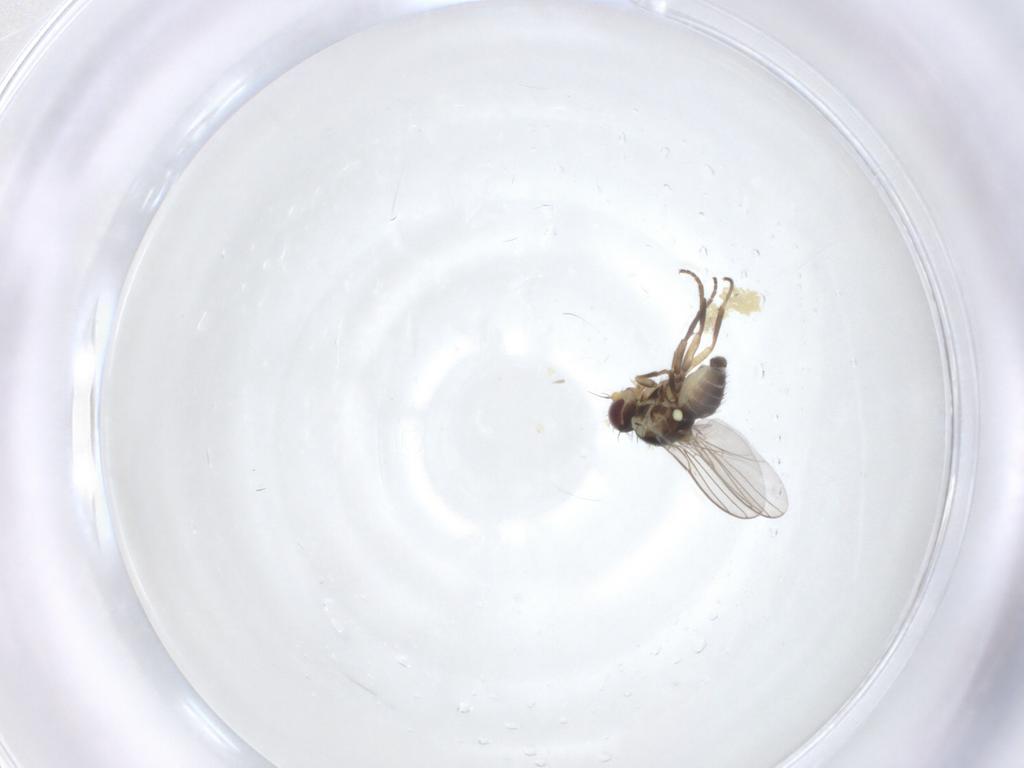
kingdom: Animalia
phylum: Arthropoda
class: Insecta
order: Diptera
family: Agromyzidae
